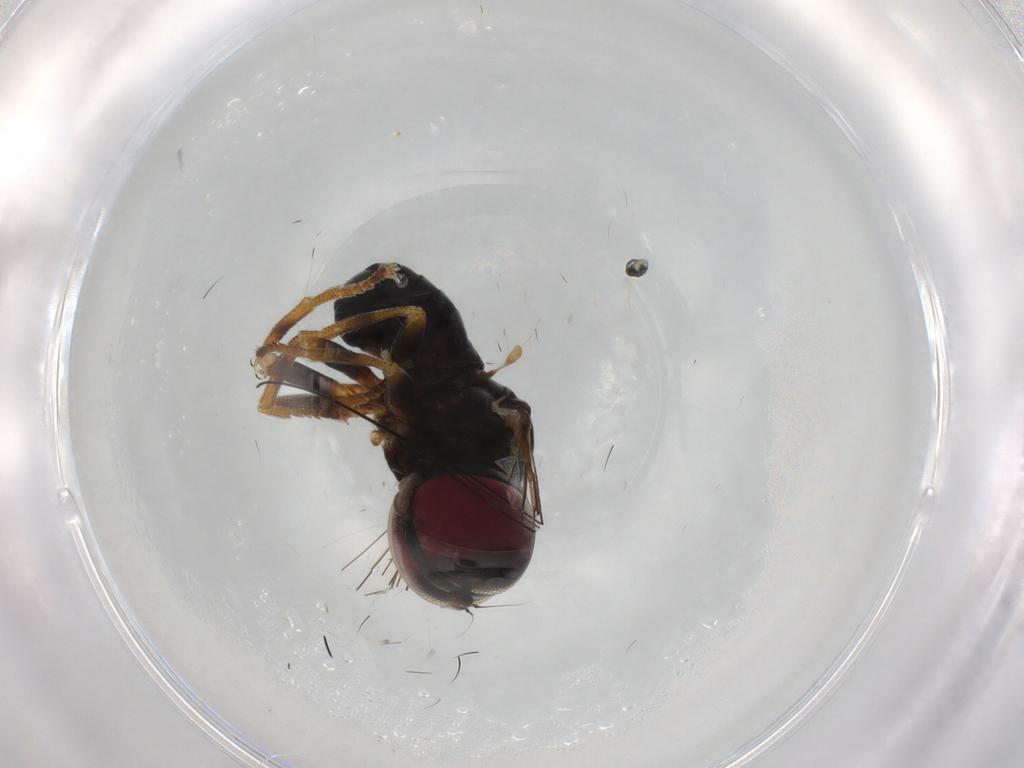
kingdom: Animalia
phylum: Arthropoda
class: Insecta
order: Diptera
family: Pipunculidae
